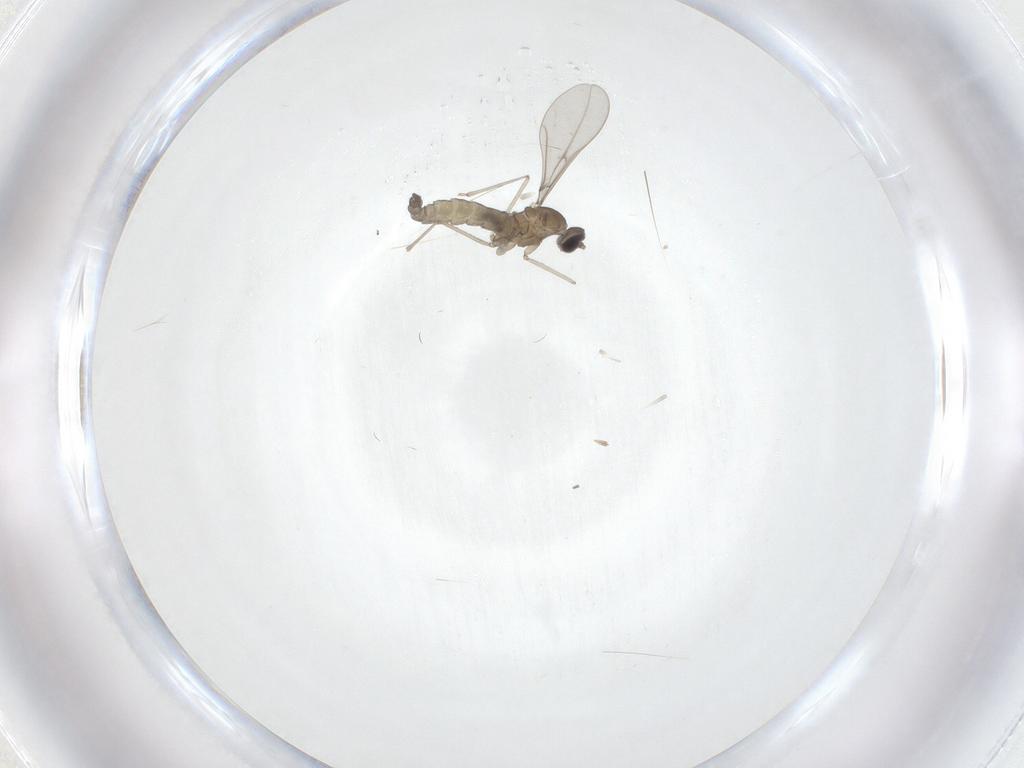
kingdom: Animalia
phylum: Arthropoda
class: Insecta
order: Diptera
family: Cecidomyiidae
